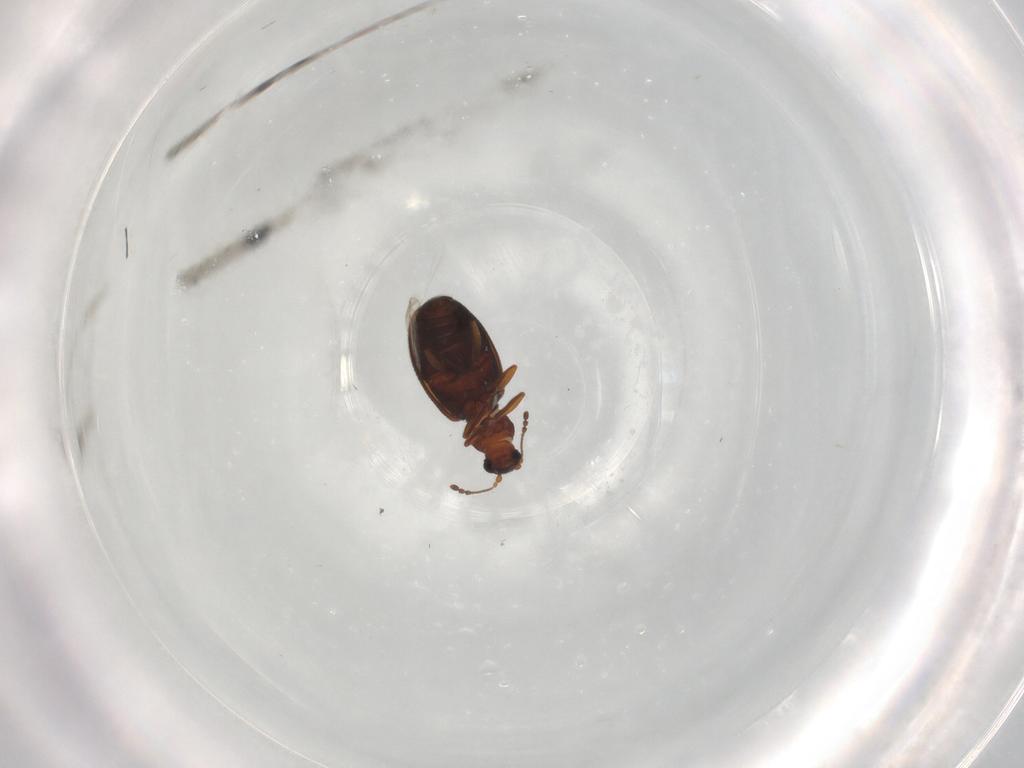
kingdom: Animalia
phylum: Arthropoda
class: Insecta
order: Coleoptera
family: Latridiidae
